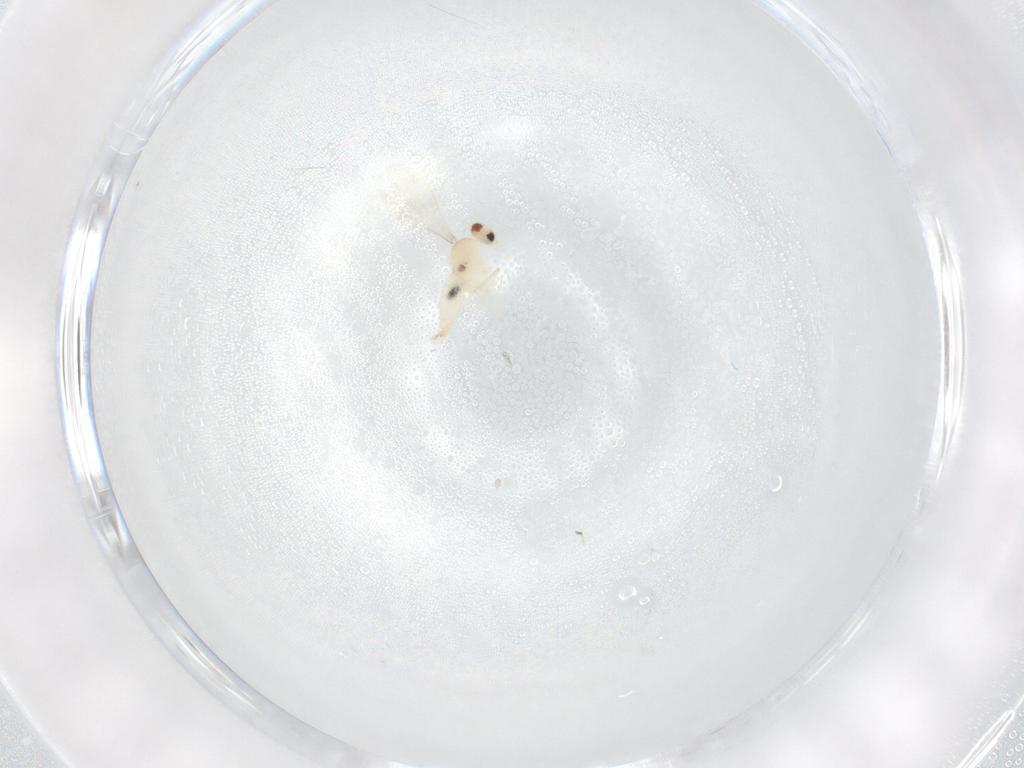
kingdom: Animalia
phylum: Arthropoda
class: Insecta
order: Diptera
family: Cecidomyiidae
